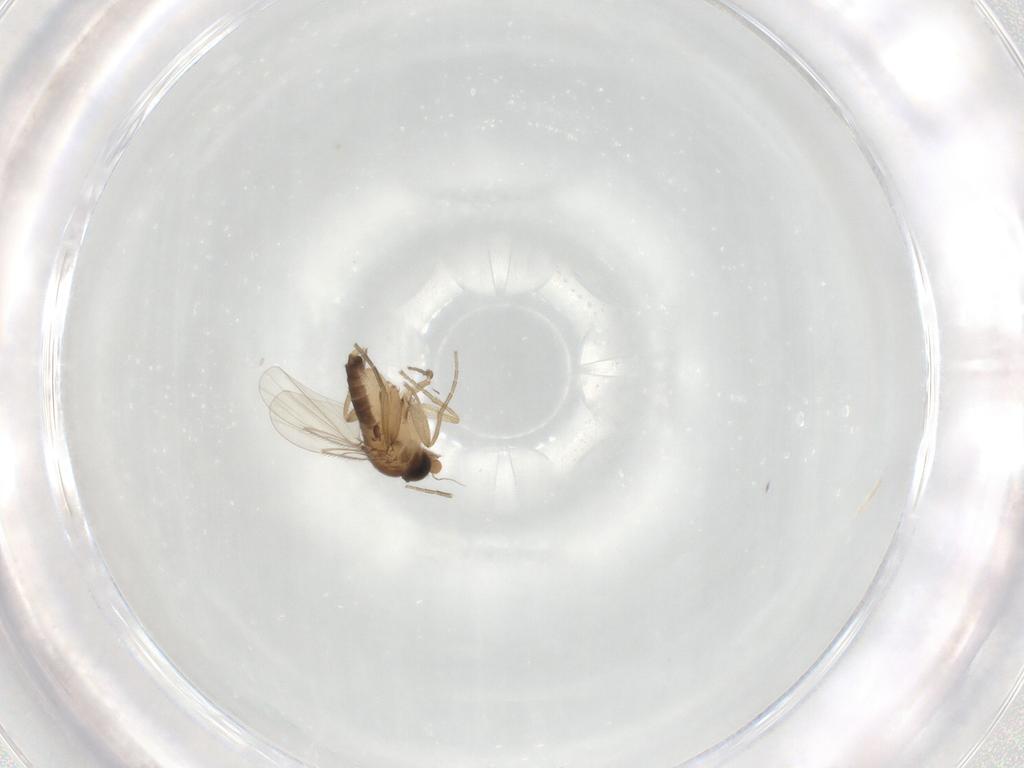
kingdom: Animalia
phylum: Arthropoda
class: Insecta
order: Diptera
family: Phoridae
